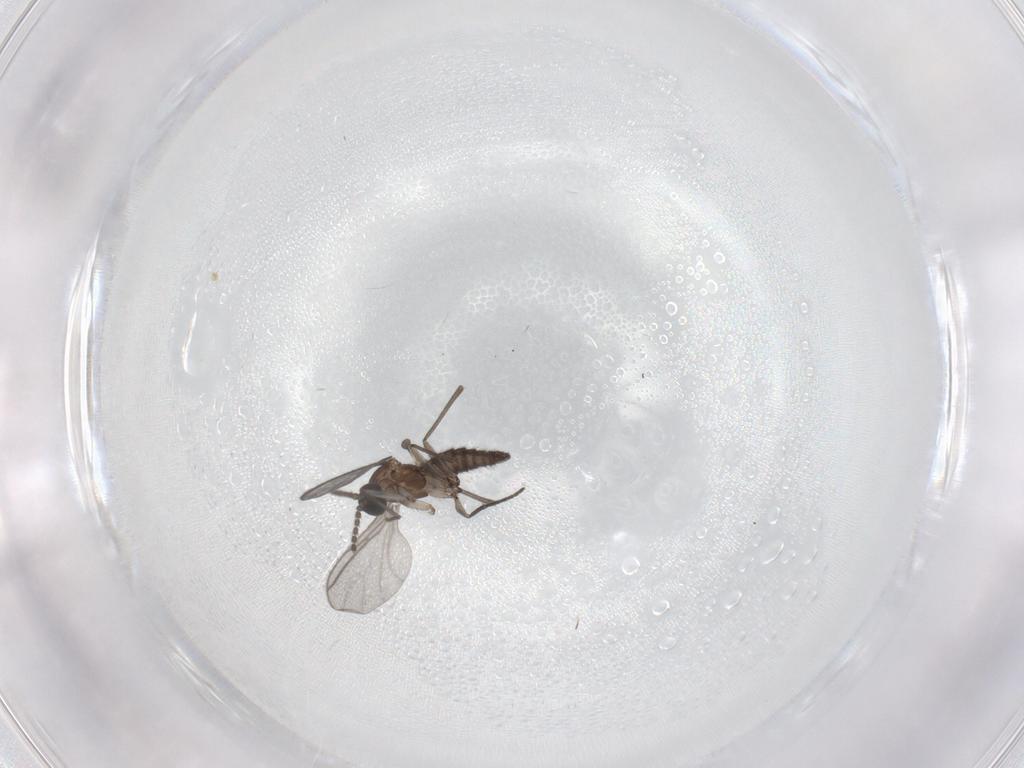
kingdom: Animalia
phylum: Arthropoda
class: Insecta
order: Diptera
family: Dolichopodidae
